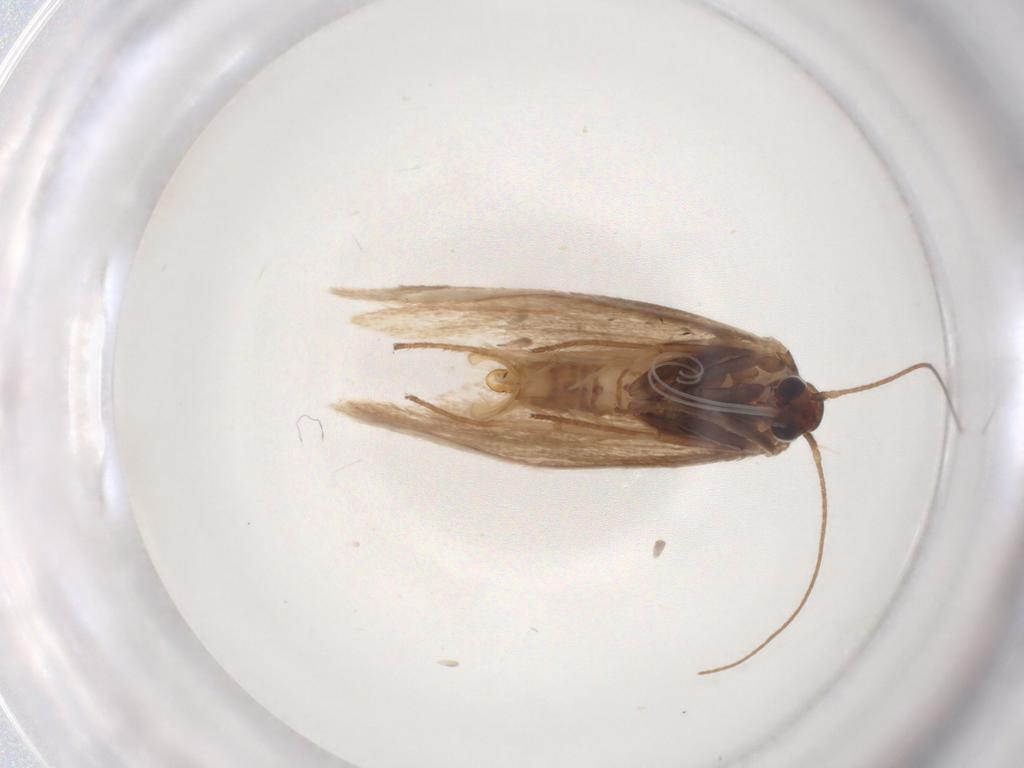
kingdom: Animalia
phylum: Arthropoda
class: Insecta
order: Lepidoptera
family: Limacodidae
